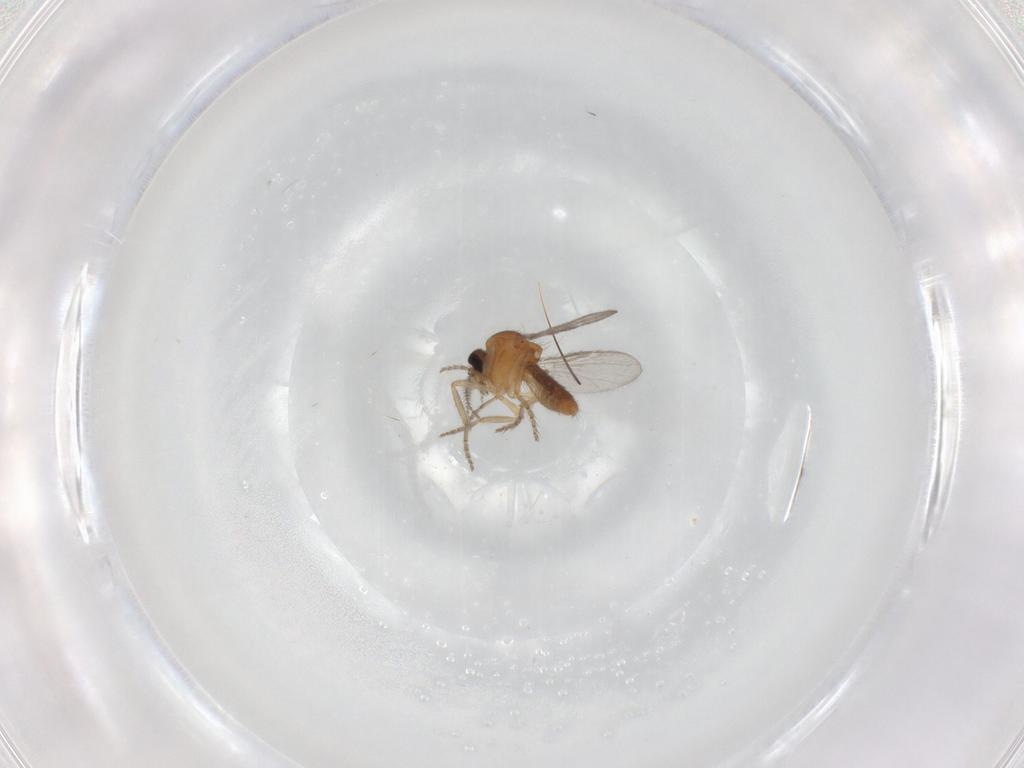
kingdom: Animalia
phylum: Arthropoda
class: Insecta
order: Diptera
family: Ceratopogonidae
